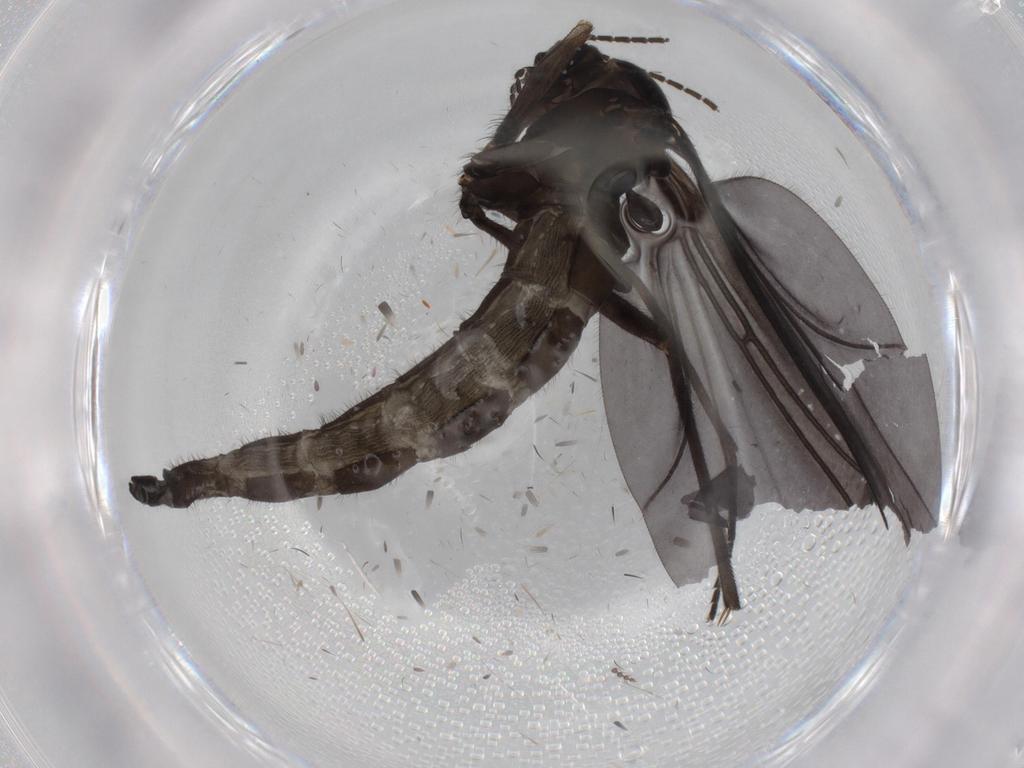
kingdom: Animalia
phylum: Arthropoda
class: Insecta
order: Diptera
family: Sciaridae
